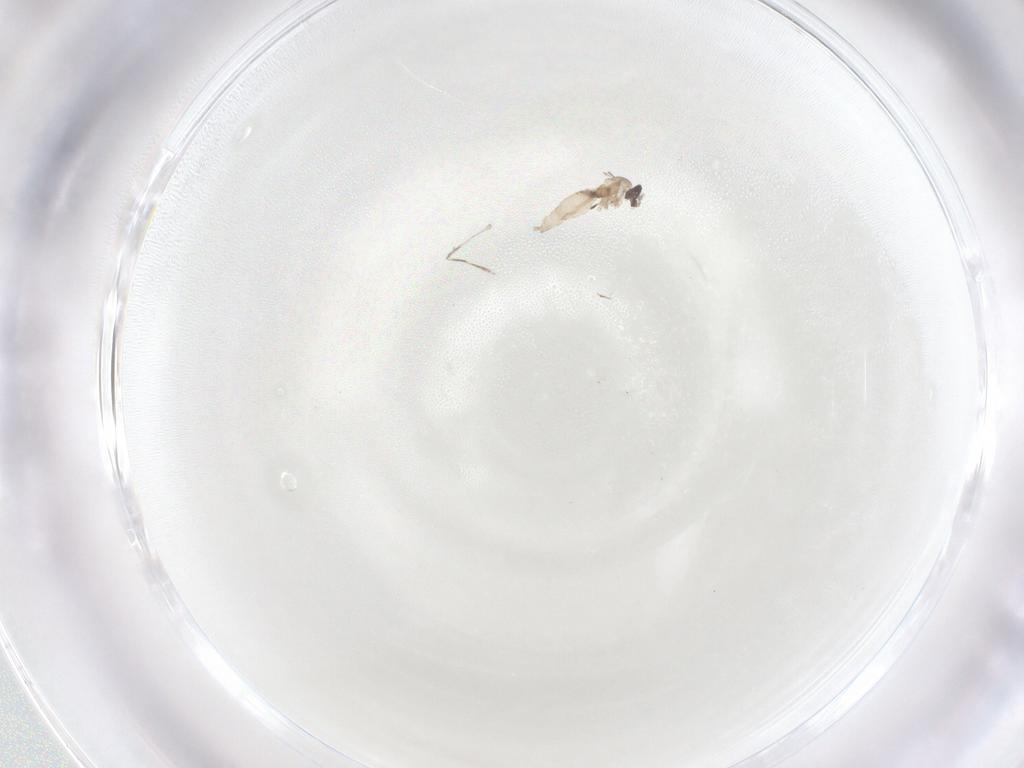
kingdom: Animalia
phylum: Arthropoda
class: Insecta
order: Diptera
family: Cecidomyiidae
